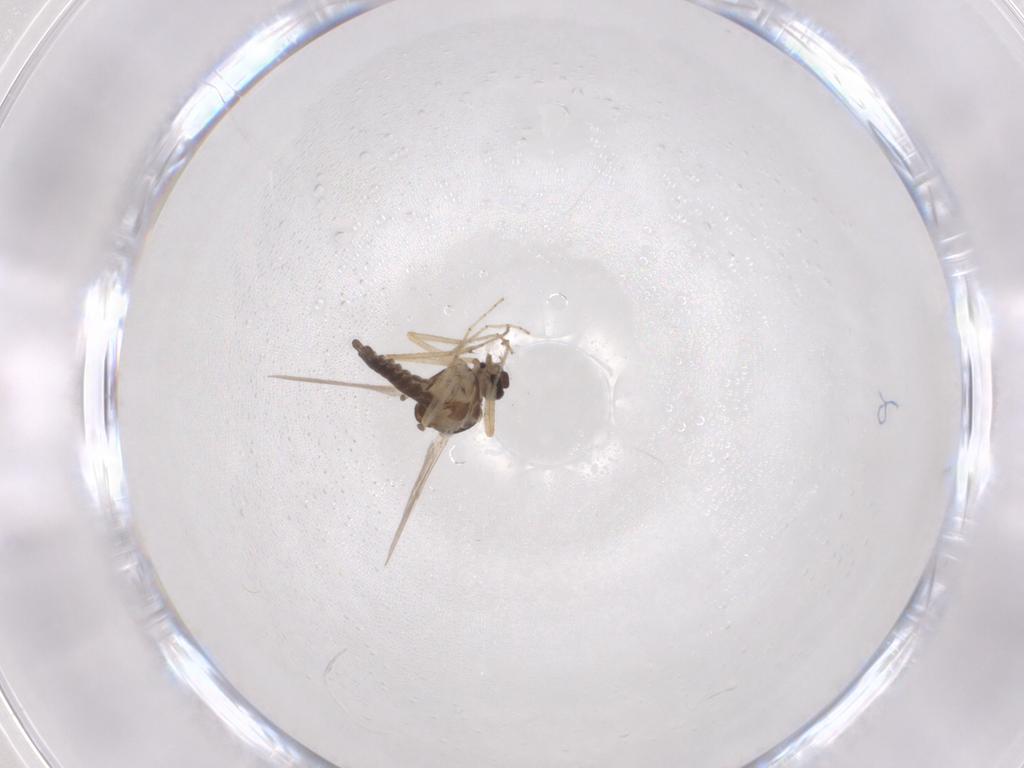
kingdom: Animalia
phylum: Arthropoda
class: Insecta
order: Diptera
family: Ceratopogonidae
